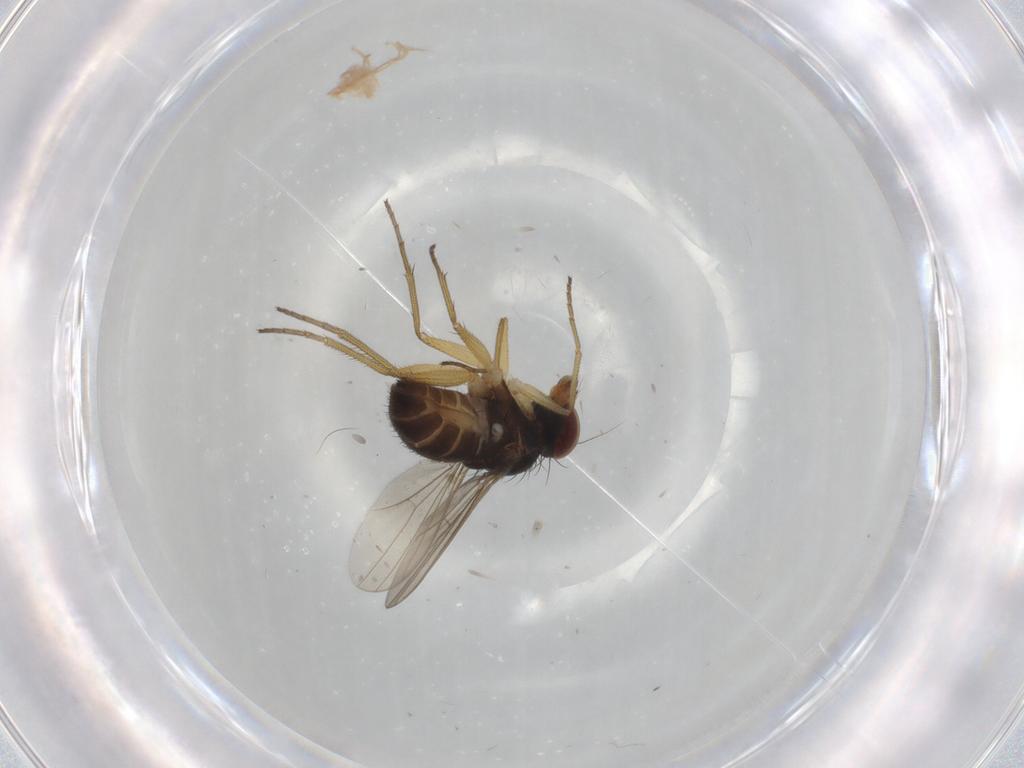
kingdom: Animalia
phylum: Arthropoda
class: Insecta
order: Diptera
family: Dolichopodidae
